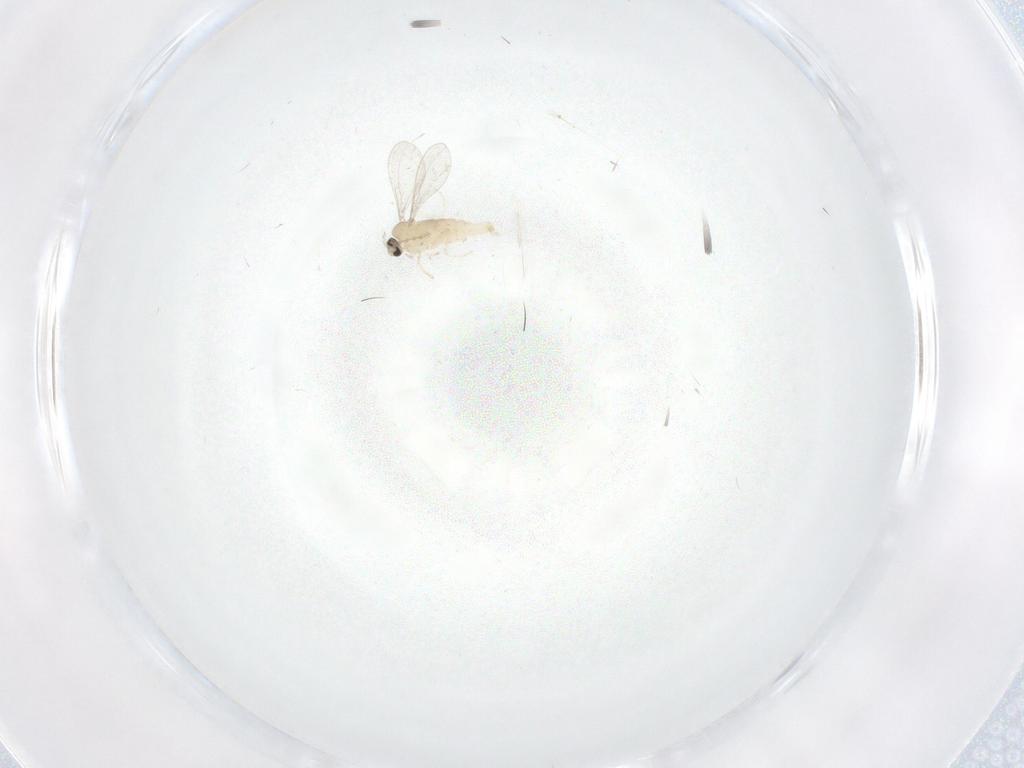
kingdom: Animalia
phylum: Arthropoda
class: Insecta
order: Diptera
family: Cecidomyiidae
